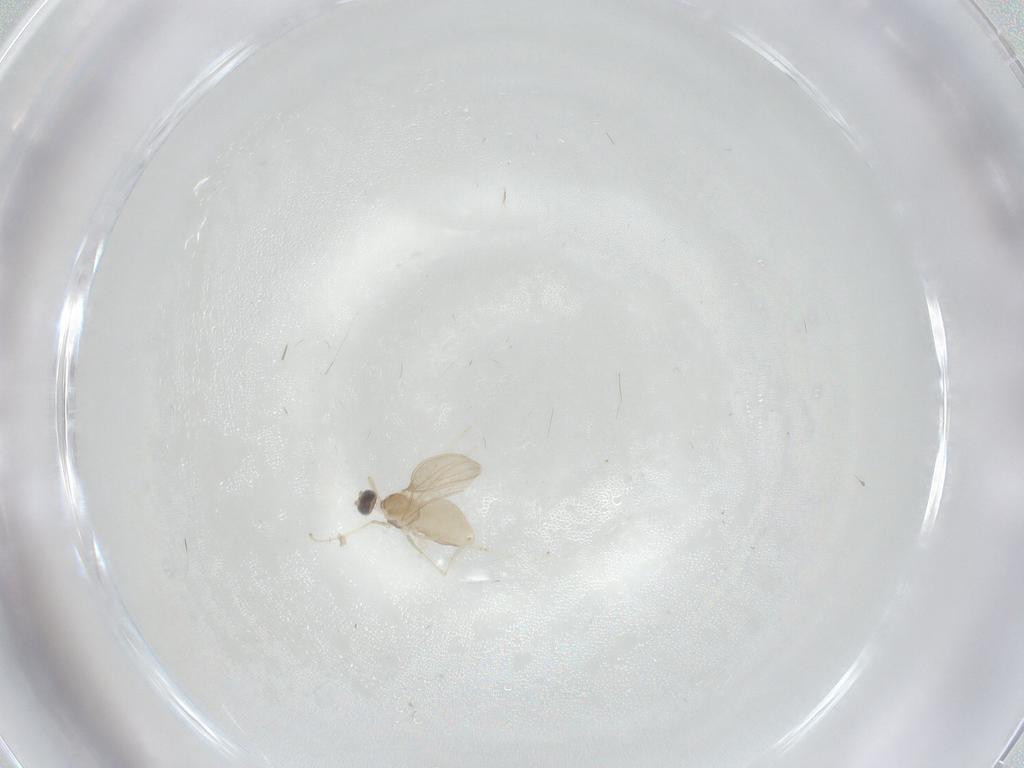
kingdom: Animalia
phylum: Arthropoda
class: Insecta
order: Diptera
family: Cecidomyiidae
